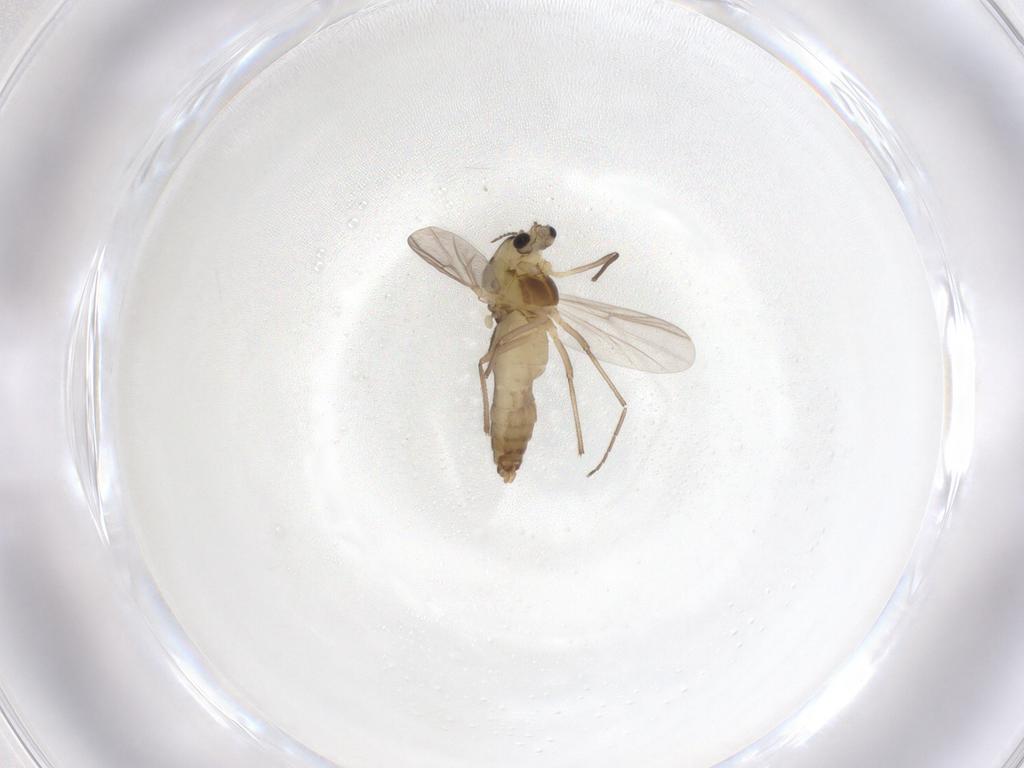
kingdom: Animalia
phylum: Arthropoda
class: Insecta
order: Diptera
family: Chironomidae
